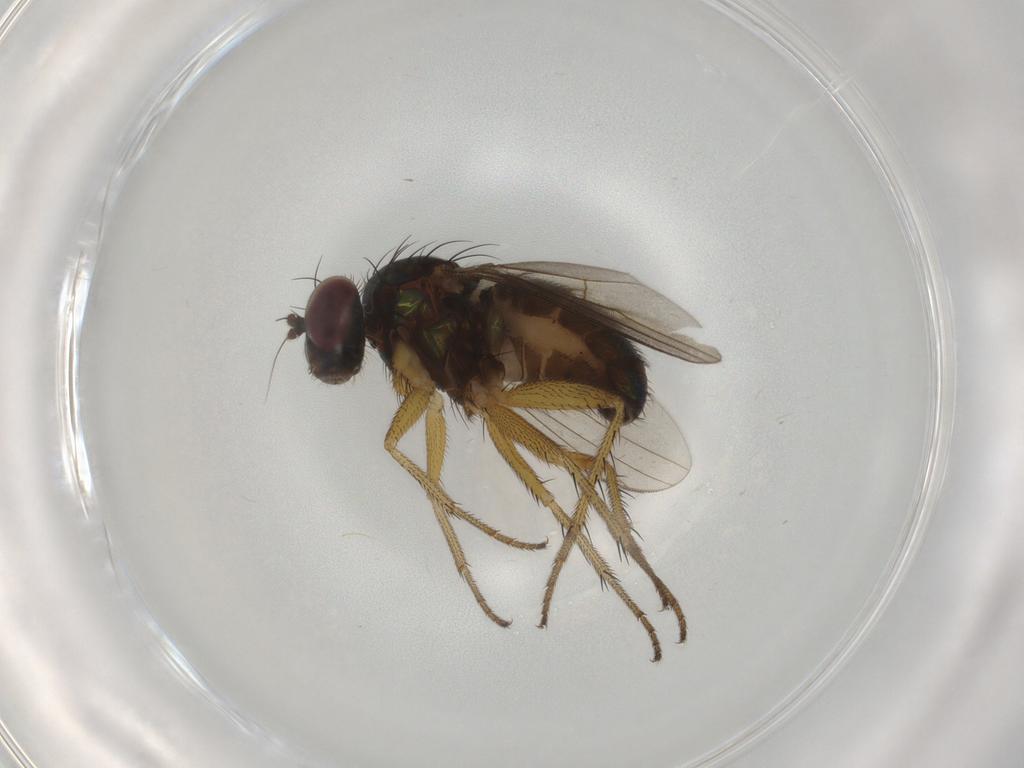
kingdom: Animalia
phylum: Arthropoda
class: Insecta
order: Diptera
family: Dolichopodidae
